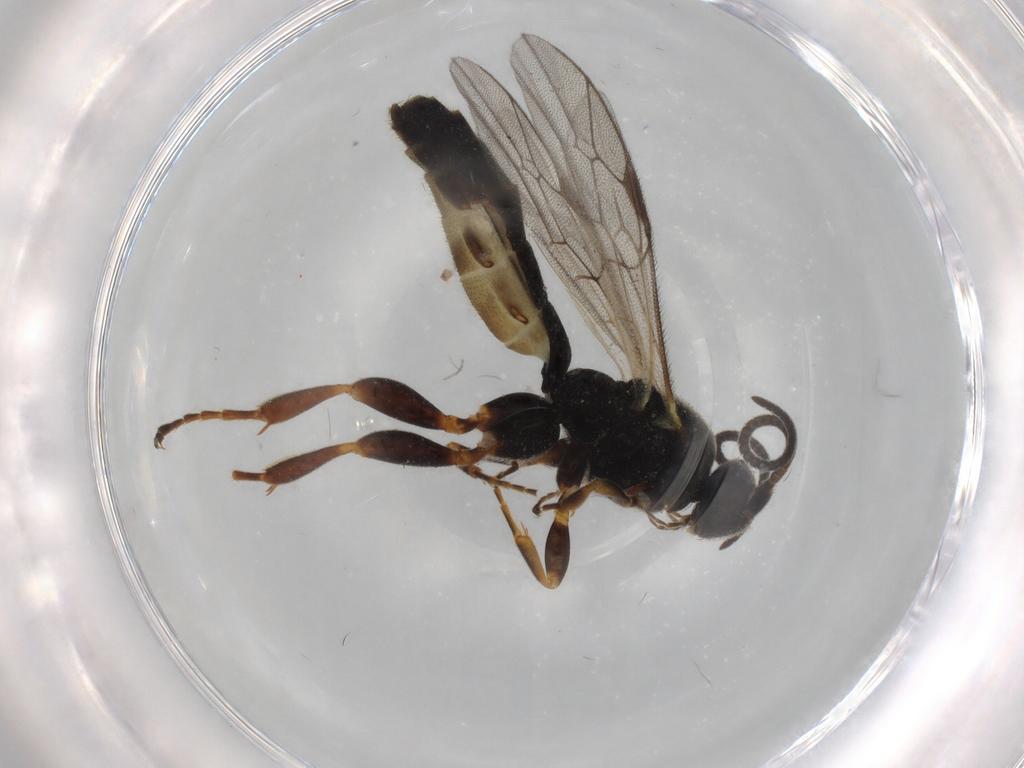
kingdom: Animalia
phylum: Arthropoda
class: Insecta
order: Hymenoptera
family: Ichneumonidae
